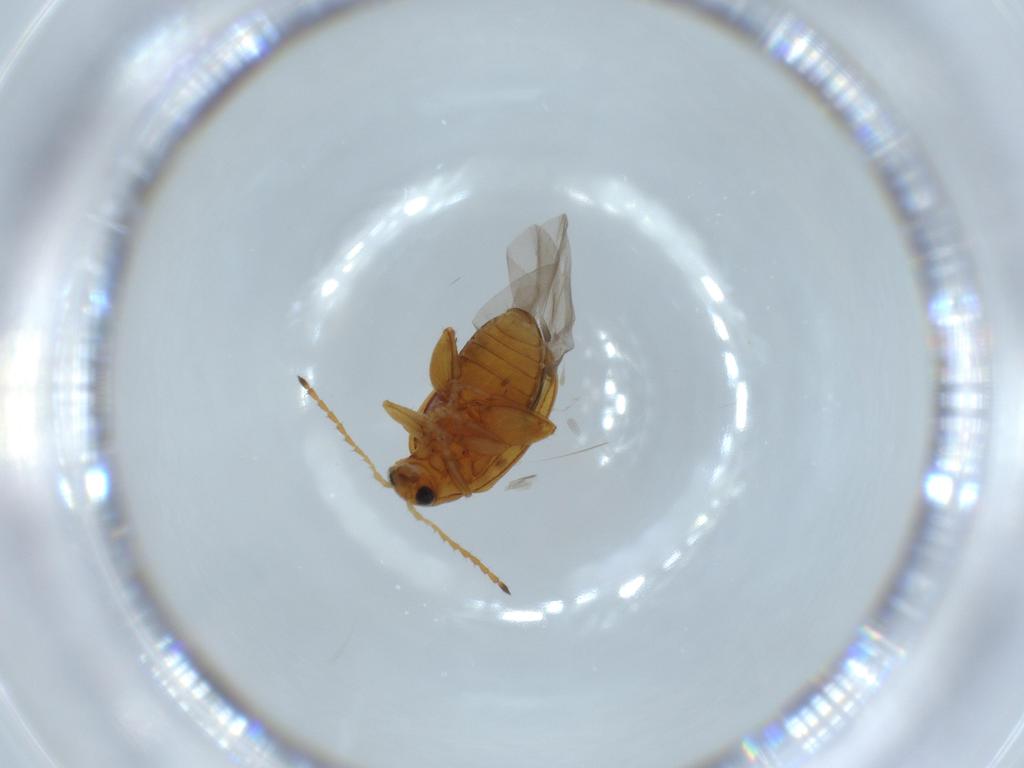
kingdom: Animalia
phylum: Arthropoda
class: Insecta
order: Coleoptera
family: Chrysomelidae
